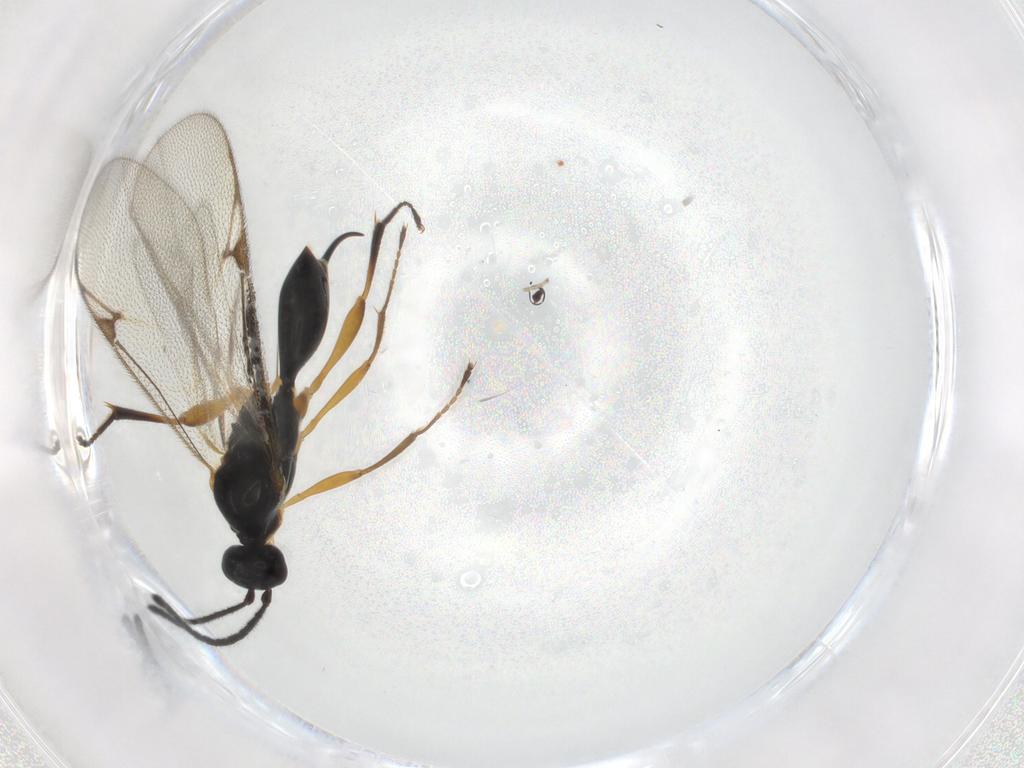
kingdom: Animalia
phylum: Arthropoda
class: Insecta
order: Hymenoptera
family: Proctotrupidae
